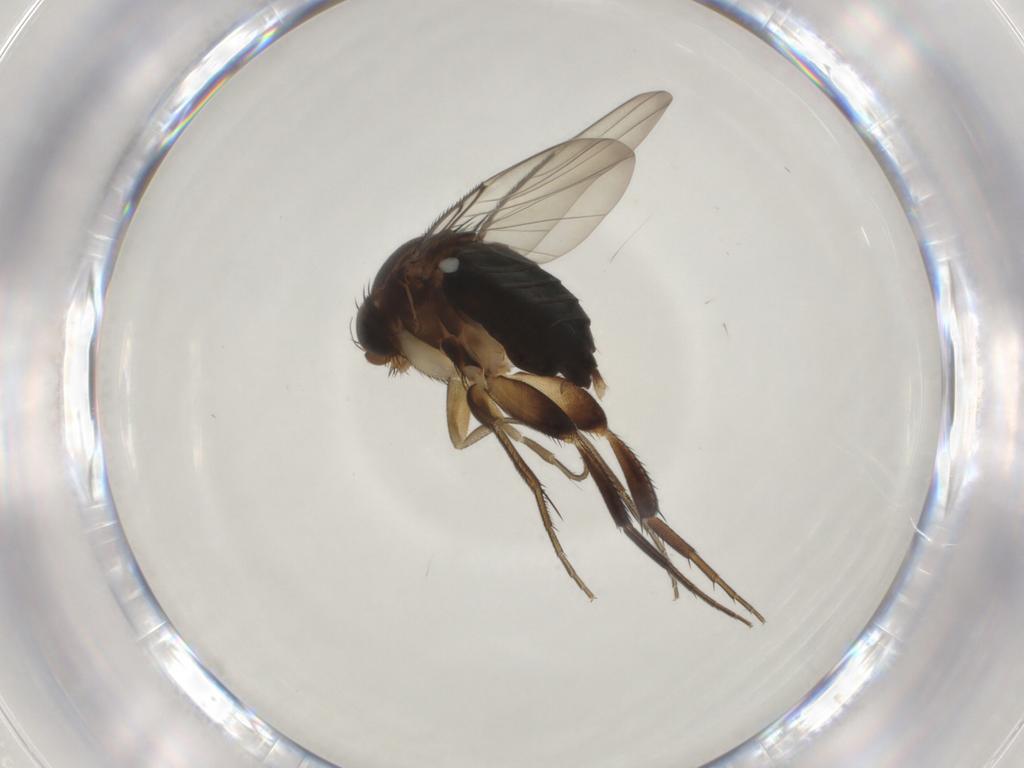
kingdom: Animalia
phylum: Arthropoda
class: Insecta
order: Diptera
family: Phoridae
